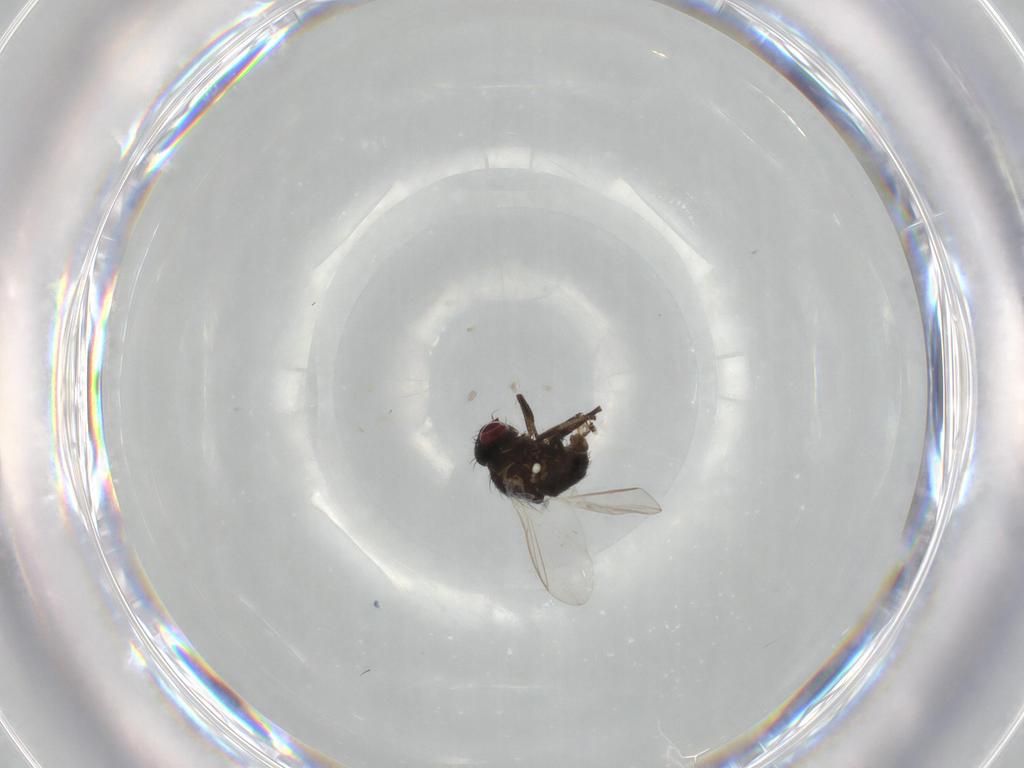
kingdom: Animalia
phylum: Arthropoda
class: Insecta
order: Diptera
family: Agromyzidae
